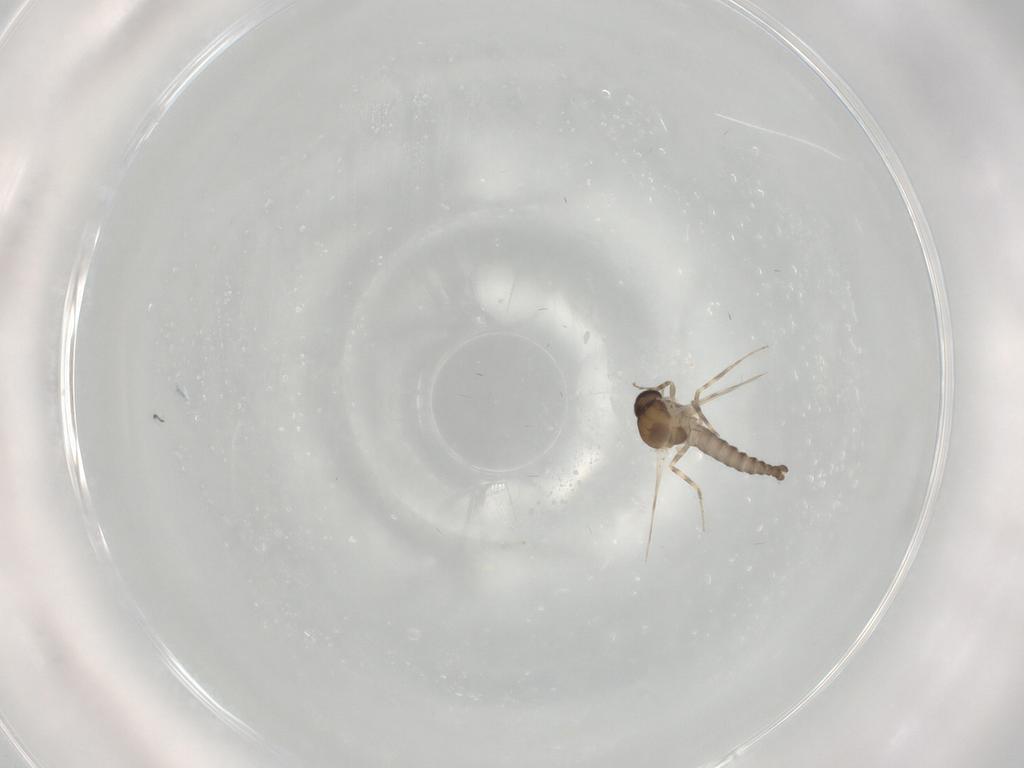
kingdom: Animalia
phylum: Arthropoda
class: Insecta
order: Diptera
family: Ceratopogonidae
